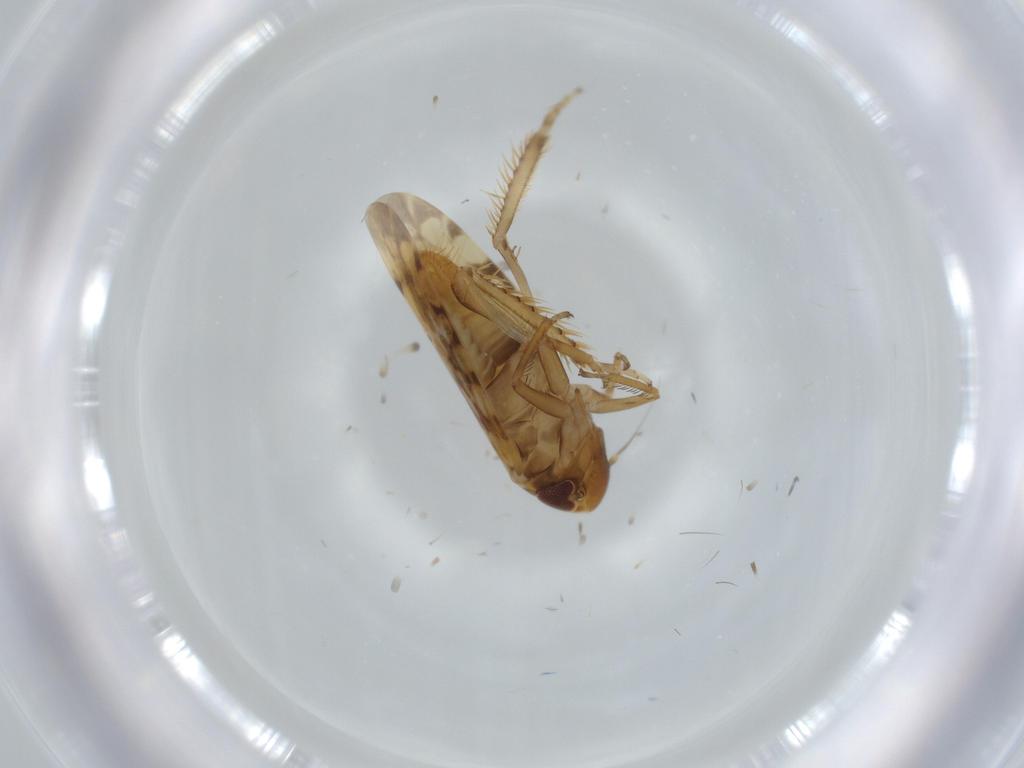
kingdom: Animalia
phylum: Arthropoda
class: Insecta
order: Hemiptera
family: Cicadellidae
